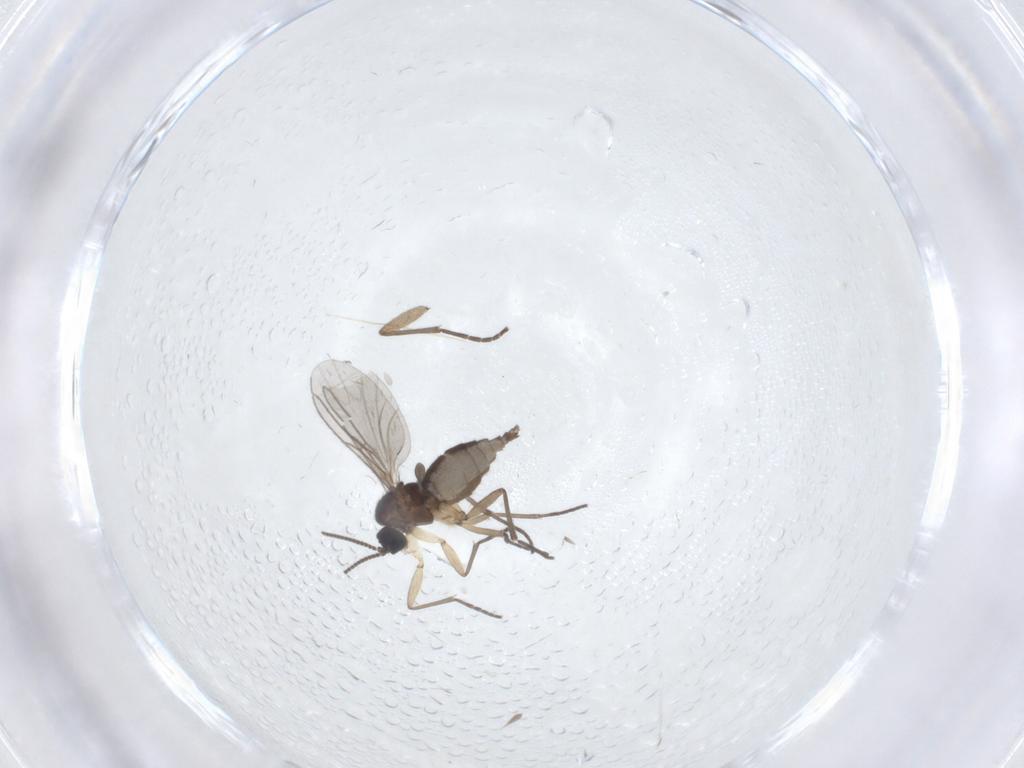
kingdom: Animalia
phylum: Arthropoda
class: Insecta
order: Diptera
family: Sciaridae
